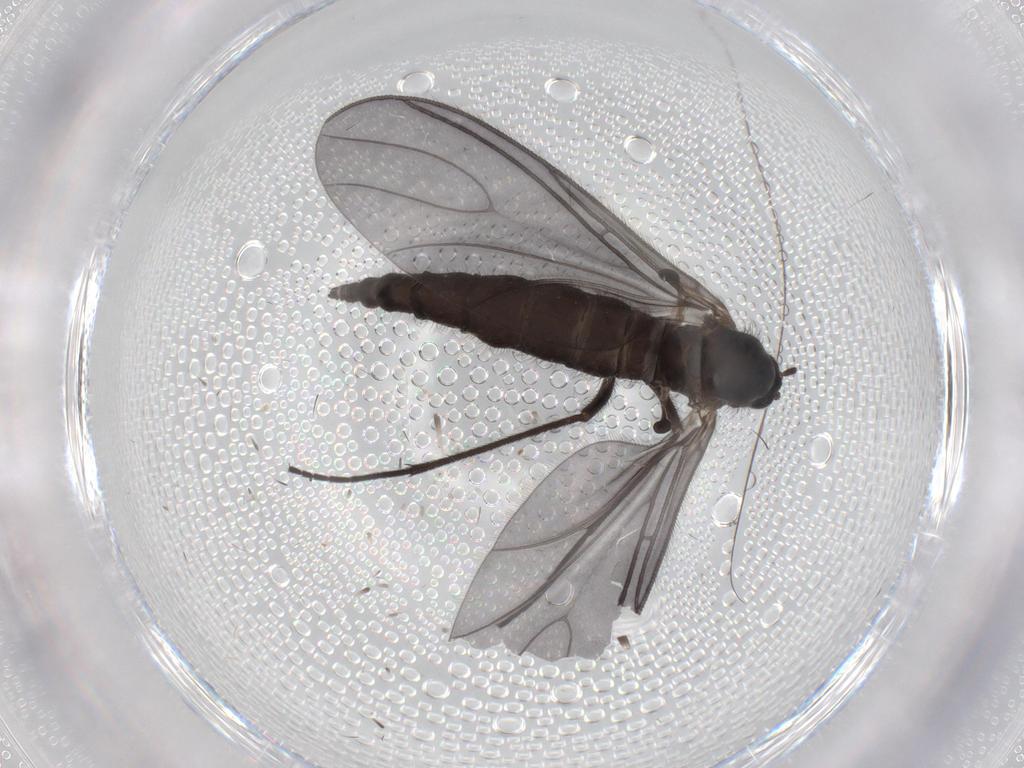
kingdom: Animalia
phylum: Arthropoda
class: Insecta
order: Diptera
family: Sciaridae
